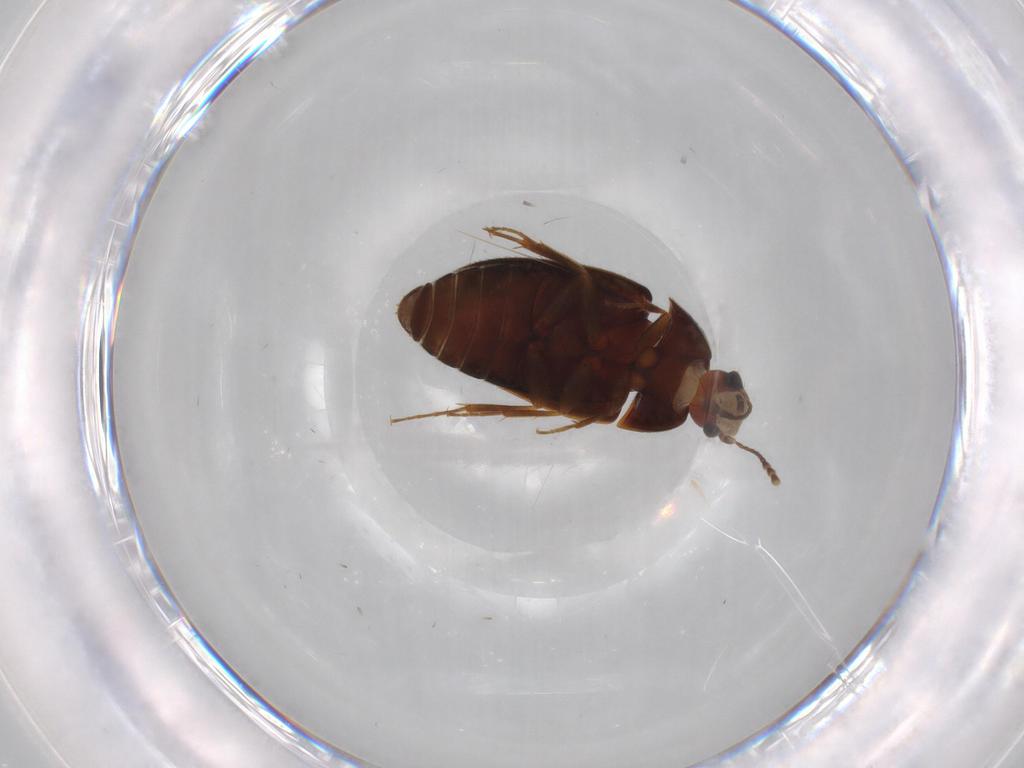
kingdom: Animalia
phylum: Arthropoda
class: Insecta
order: Coleoptera
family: Mycetophagidae
